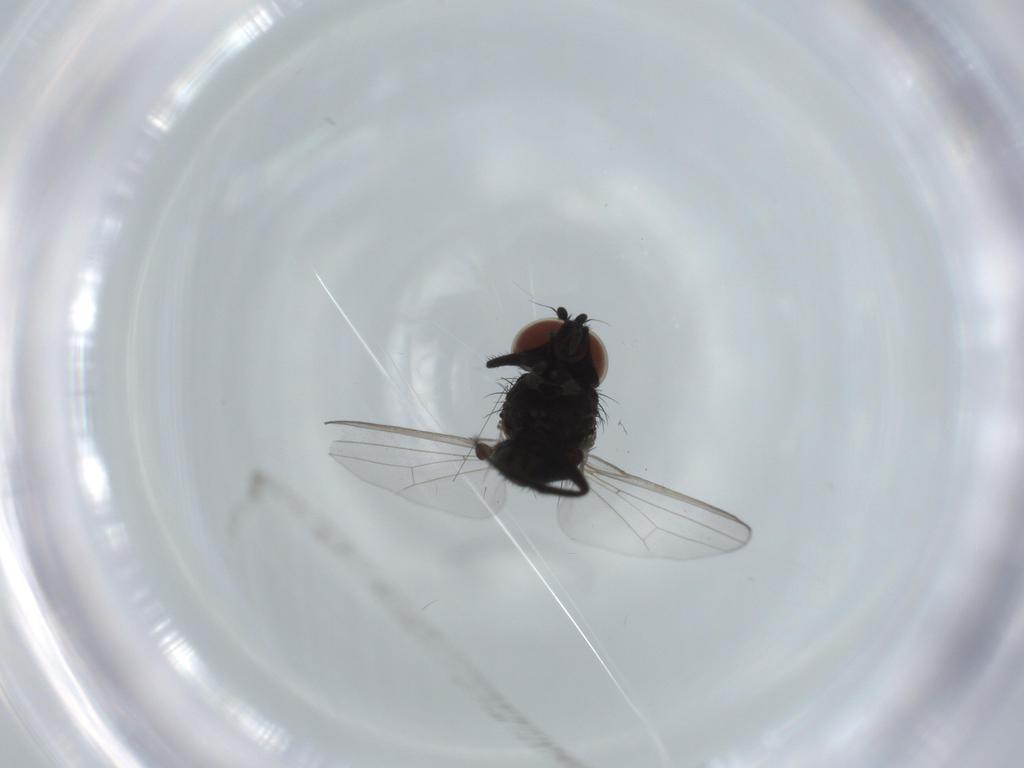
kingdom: Animalia
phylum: Arthropoda
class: Insecta
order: Diptera
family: Milichiidae
